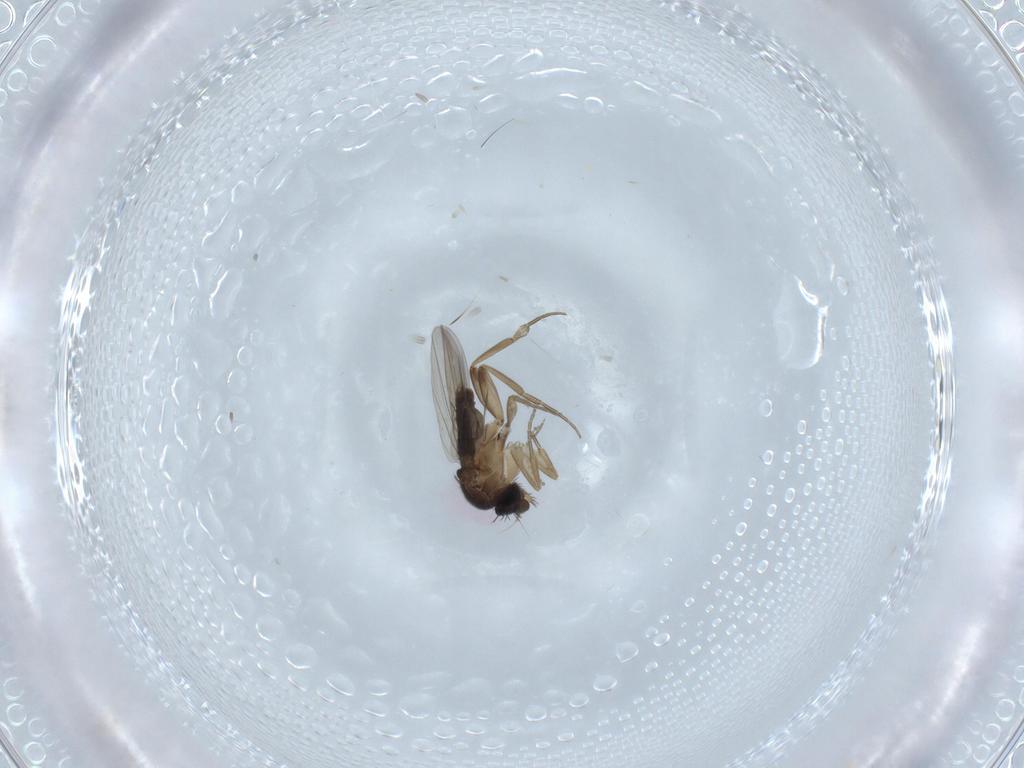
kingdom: Animalia
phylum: Arthropoda
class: Insecta
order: Diptera
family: Phoridae
